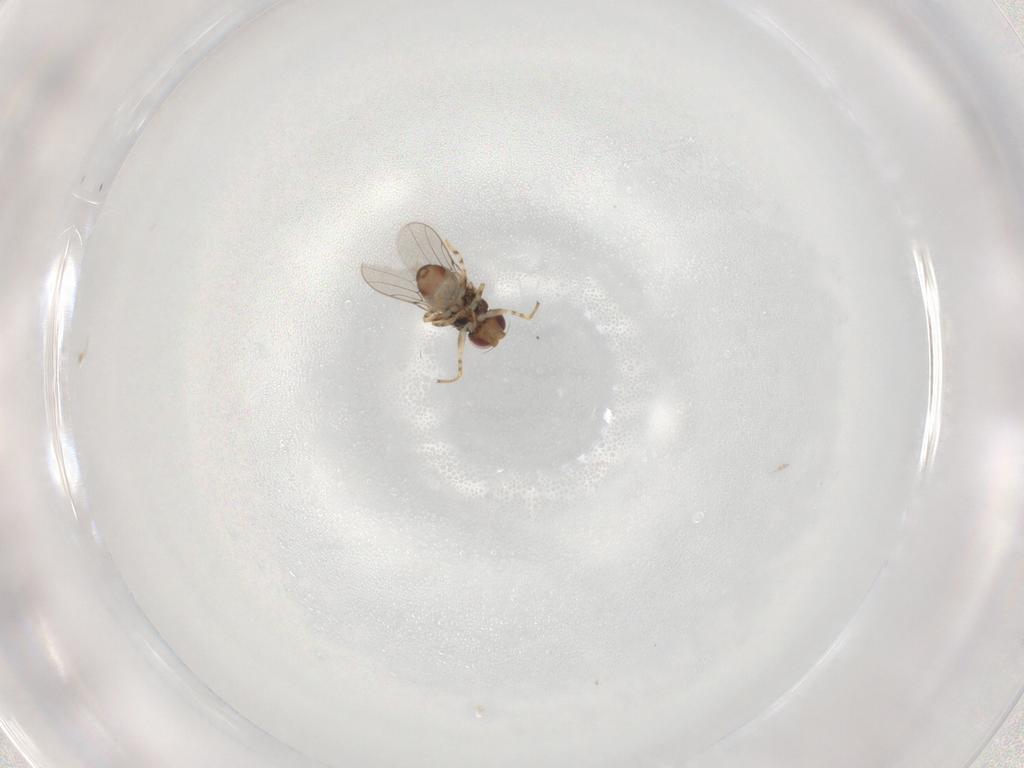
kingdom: Animalia
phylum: Arthropoda
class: Insecta
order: Diptera
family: Chloropidae
